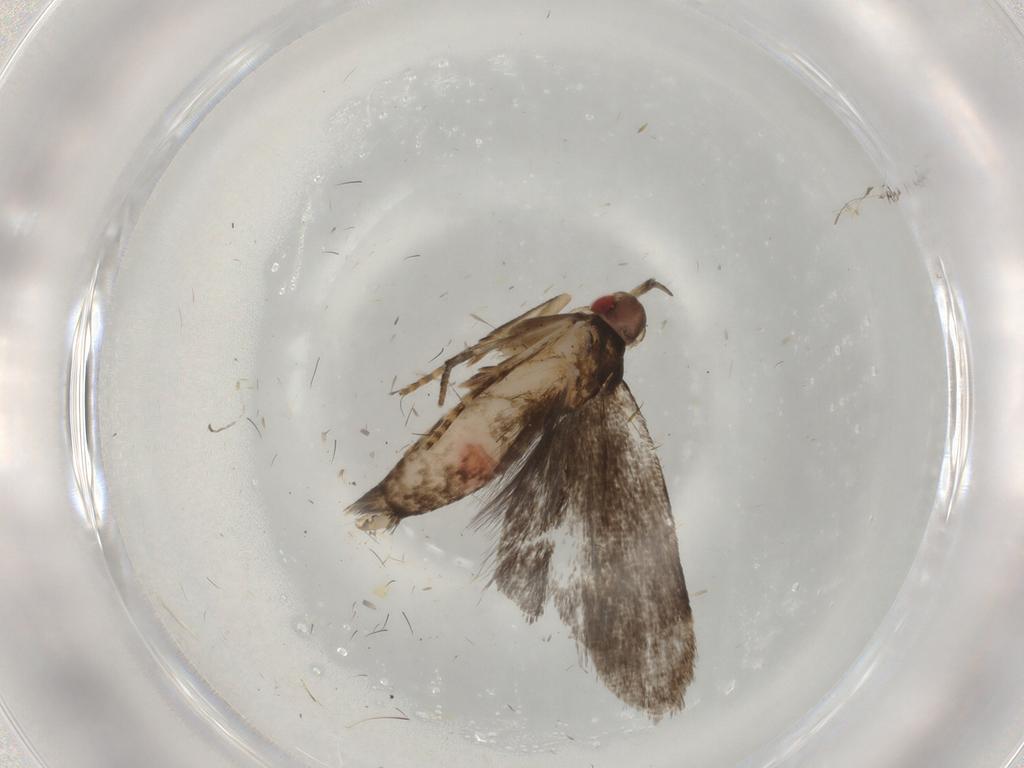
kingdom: Animalia
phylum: Arthropoda
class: Insecta
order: Lepidoptera
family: Gelechiidae
